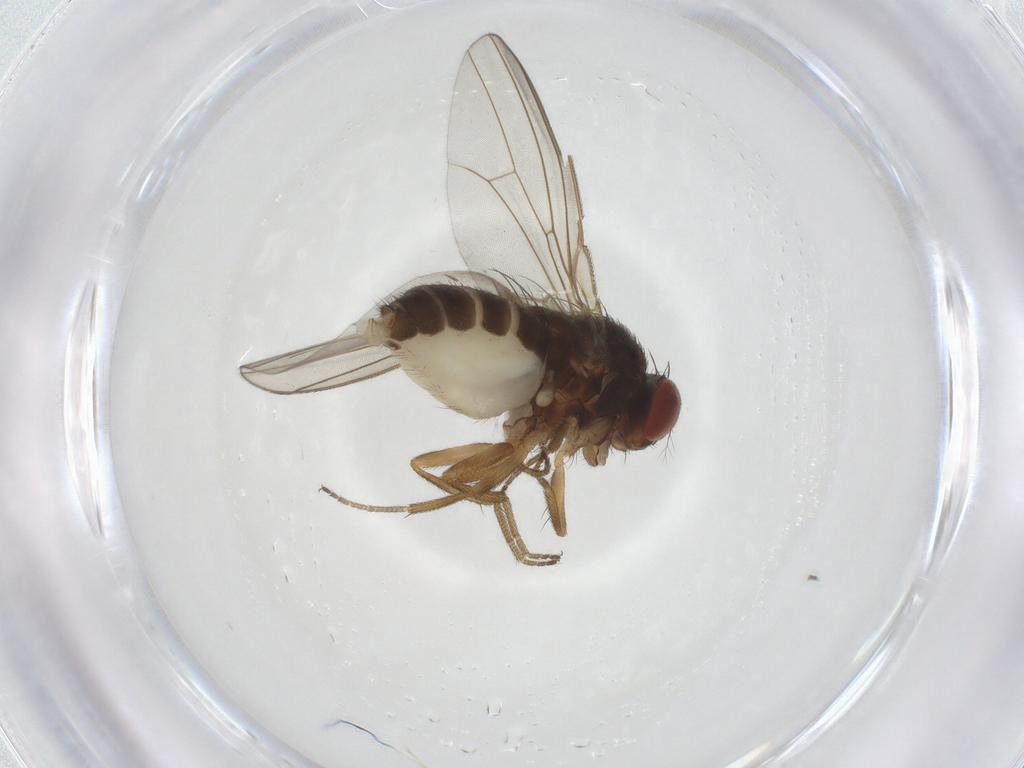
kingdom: Animalia
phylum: Arthropoda
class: Insecta
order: Diptera
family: Drosophilidae
